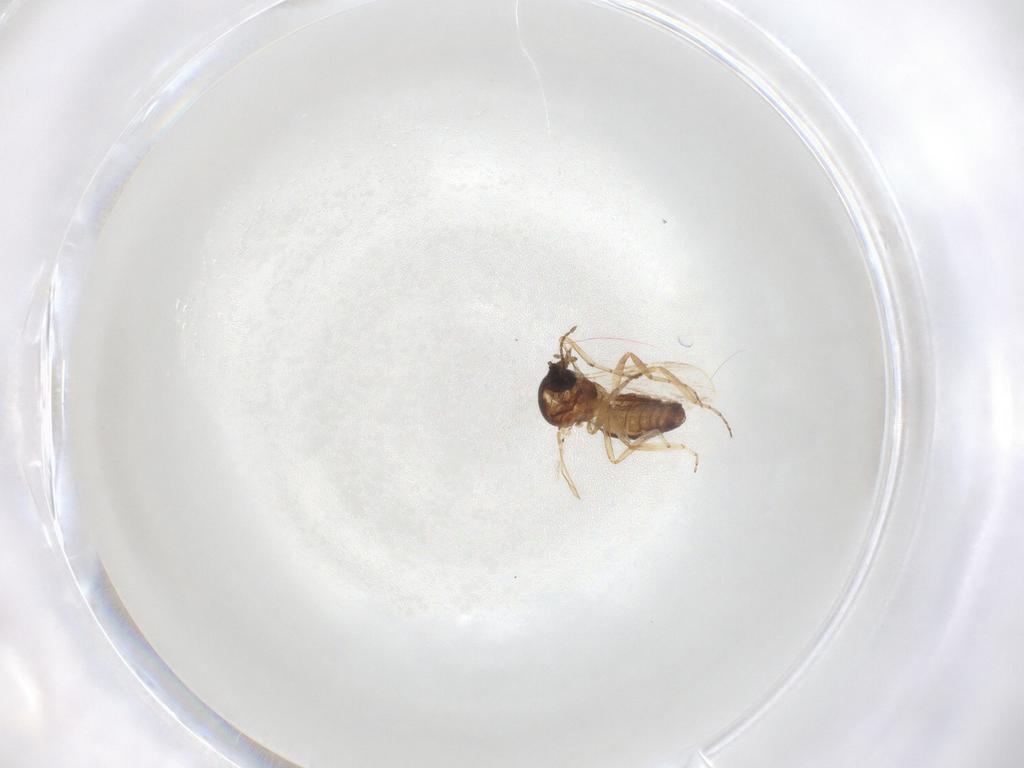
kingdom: Animalia
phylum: Arthropoda
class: Insecta
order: Diptera
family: Ceratopogonidae
